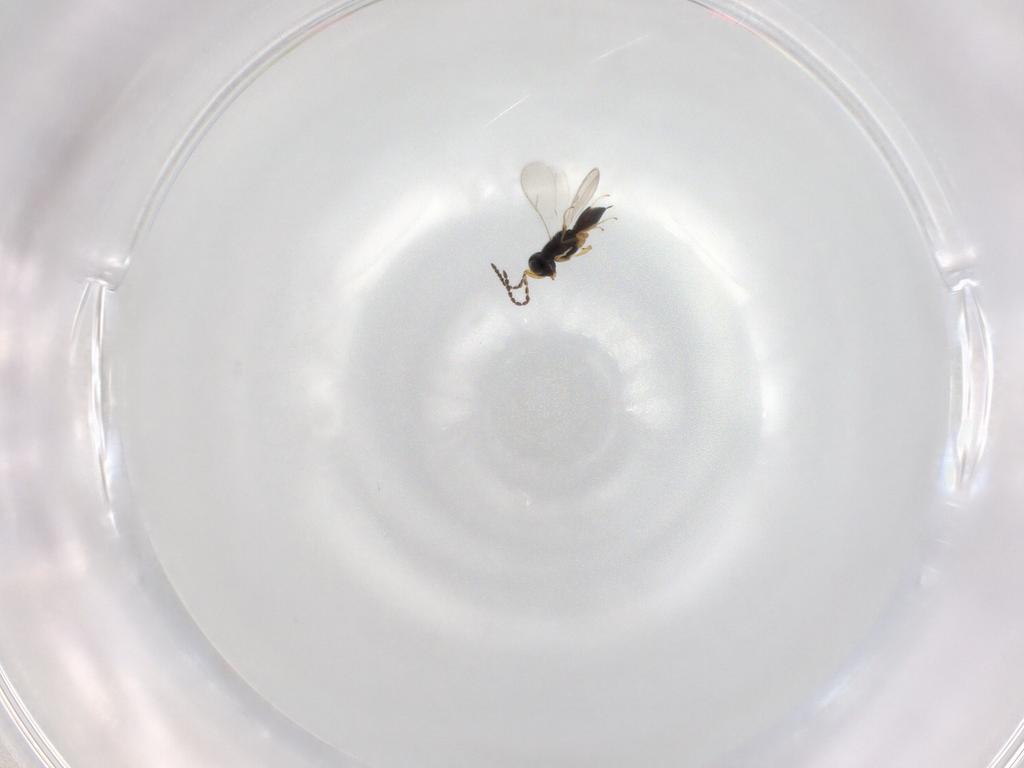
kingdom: Animalia
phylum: Arthropoda
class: Insecta
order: Hymenoptera
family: Scelionidae
